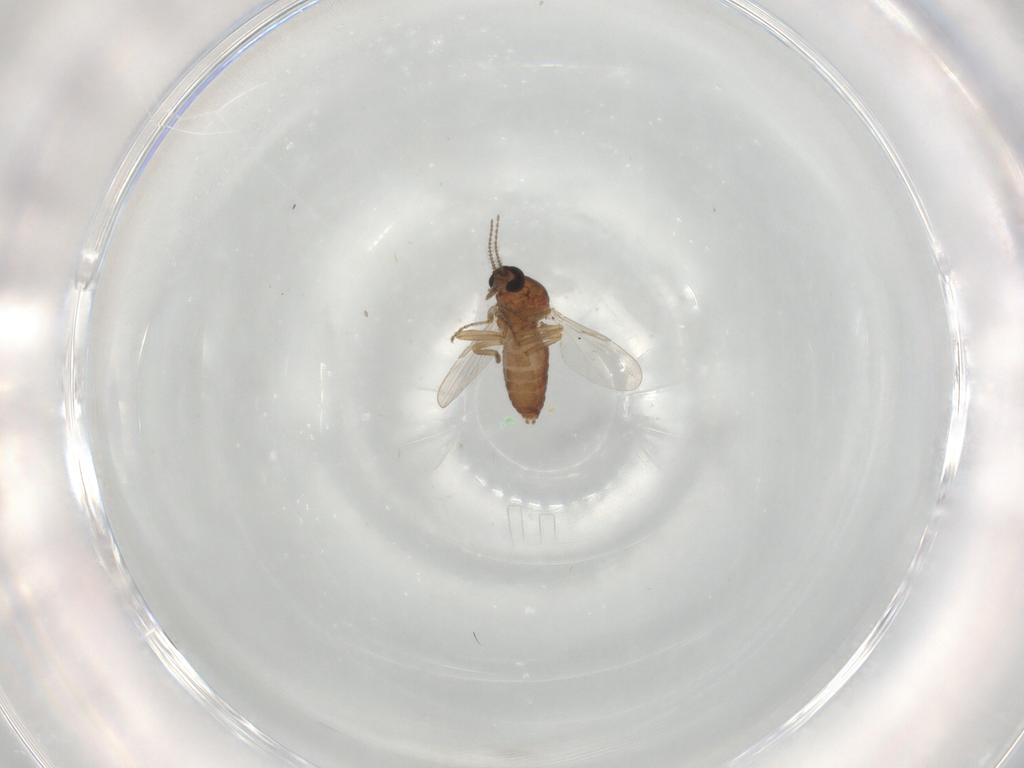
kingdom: Animalia
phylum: Arthropoda
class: Insecta
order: Diptera
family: Ceratopogonidae
